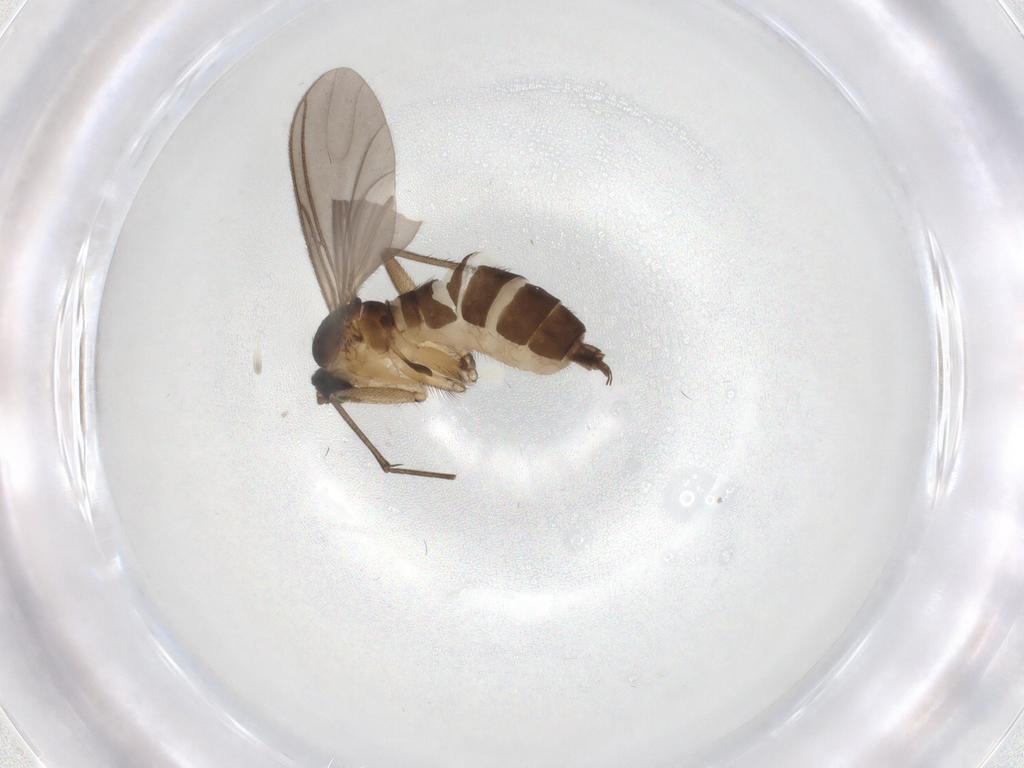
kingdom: Animalia
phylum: Arthropoda
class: Insecta
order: Diptera
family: Sciaridae
